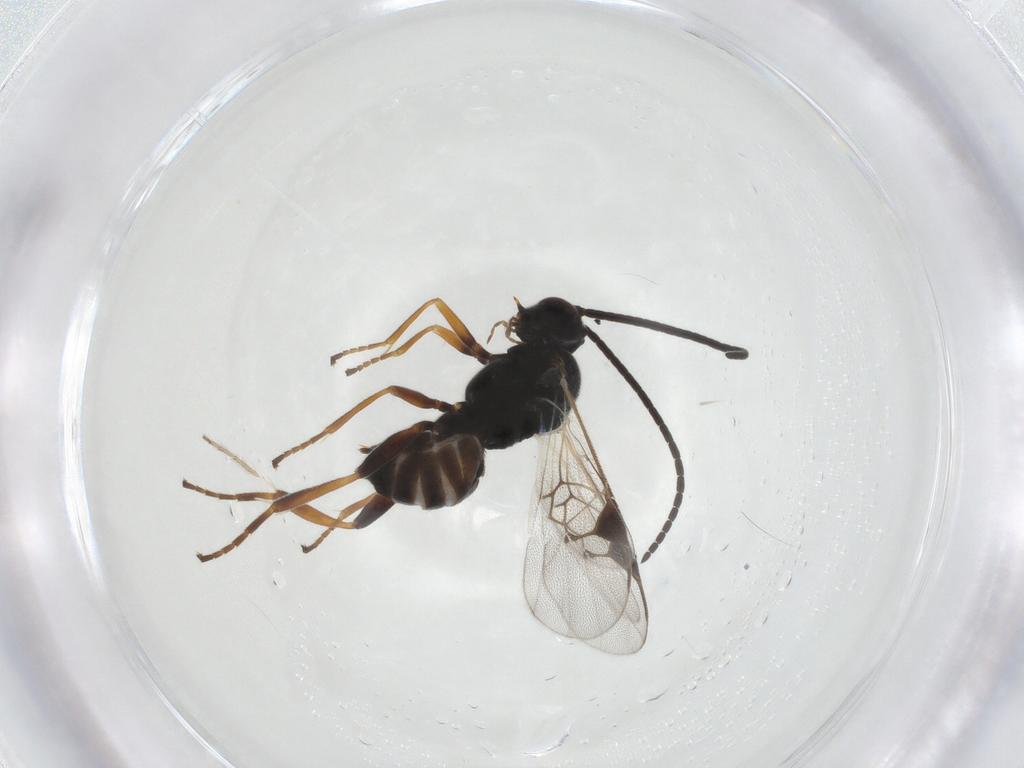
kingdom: Animalia
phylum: Arthropoda
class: Insecta
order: Hymenoptera
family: Braconidae
